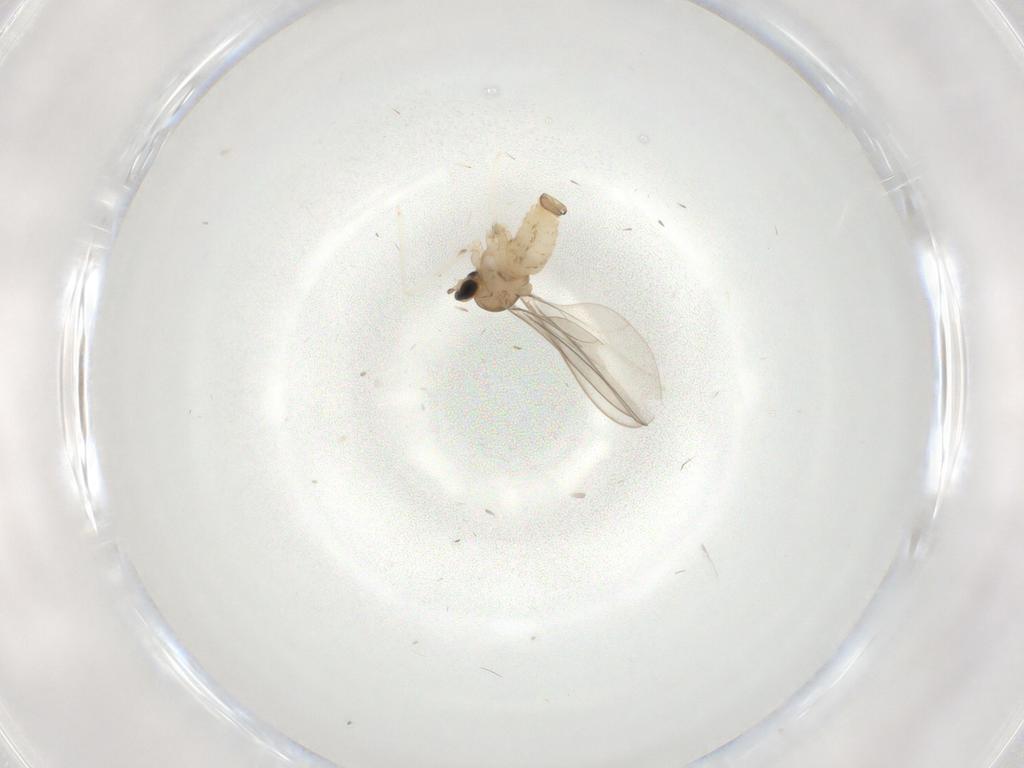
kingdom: Animalia
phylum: Arthropoda
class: Insecta
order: Diptera
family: Cecidomyiidae
